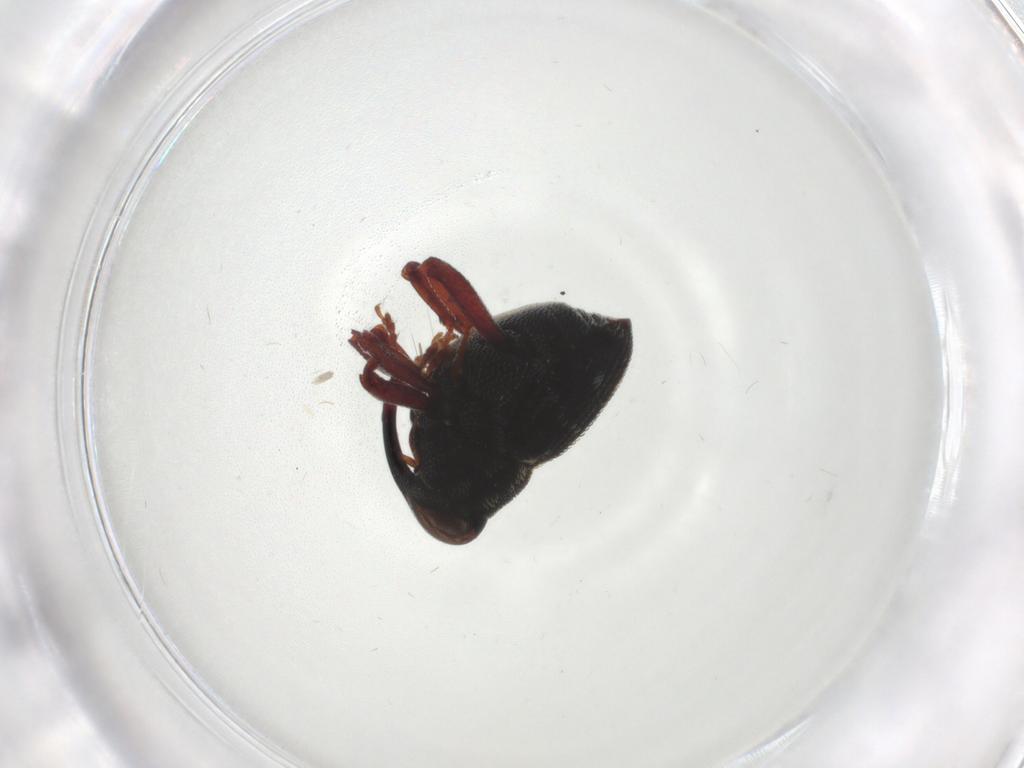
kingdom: Animalia
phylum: Arthropoda
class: Insecta
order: Coleoptera
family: Curculionidae
